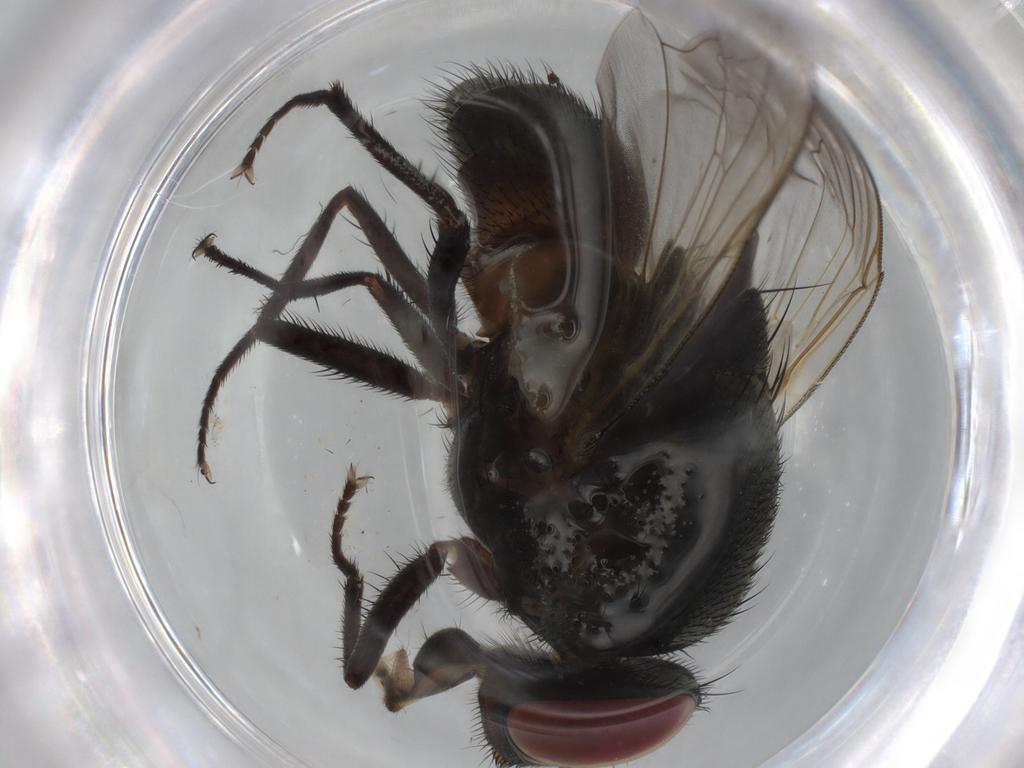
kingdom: Animalia
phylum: Arthropoda
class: Insecta
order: Diptera
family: Muscidae
